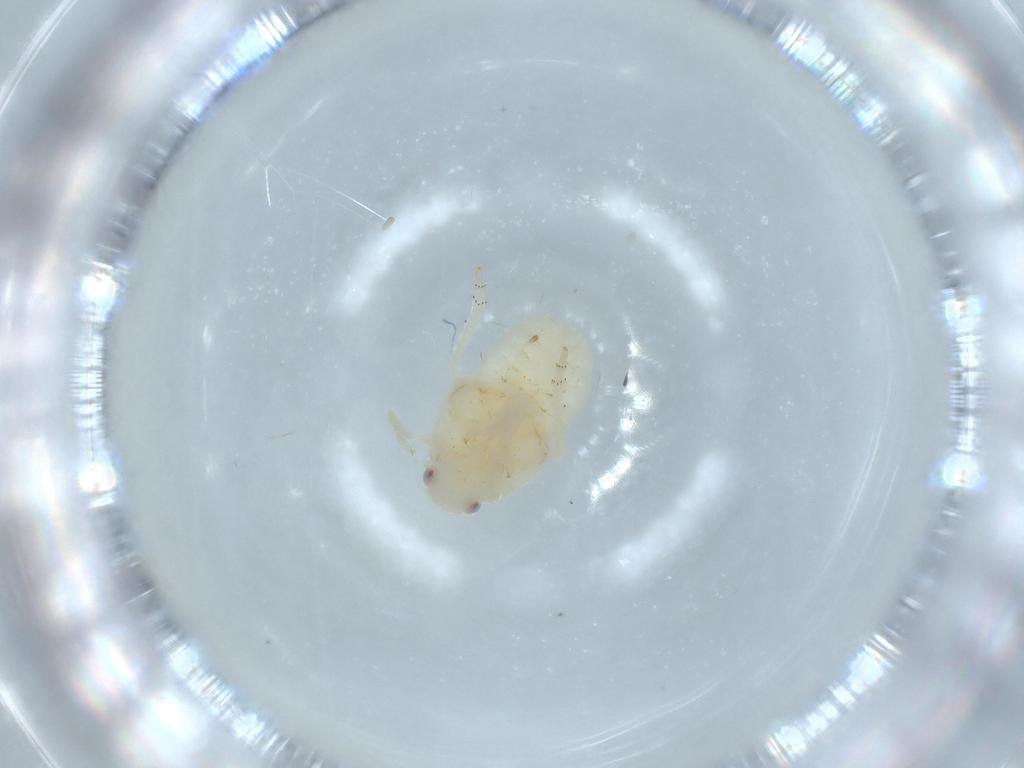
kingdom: Animalia
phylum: Arthropoda
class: Insecta
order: Hemiptera
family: Flatidae
